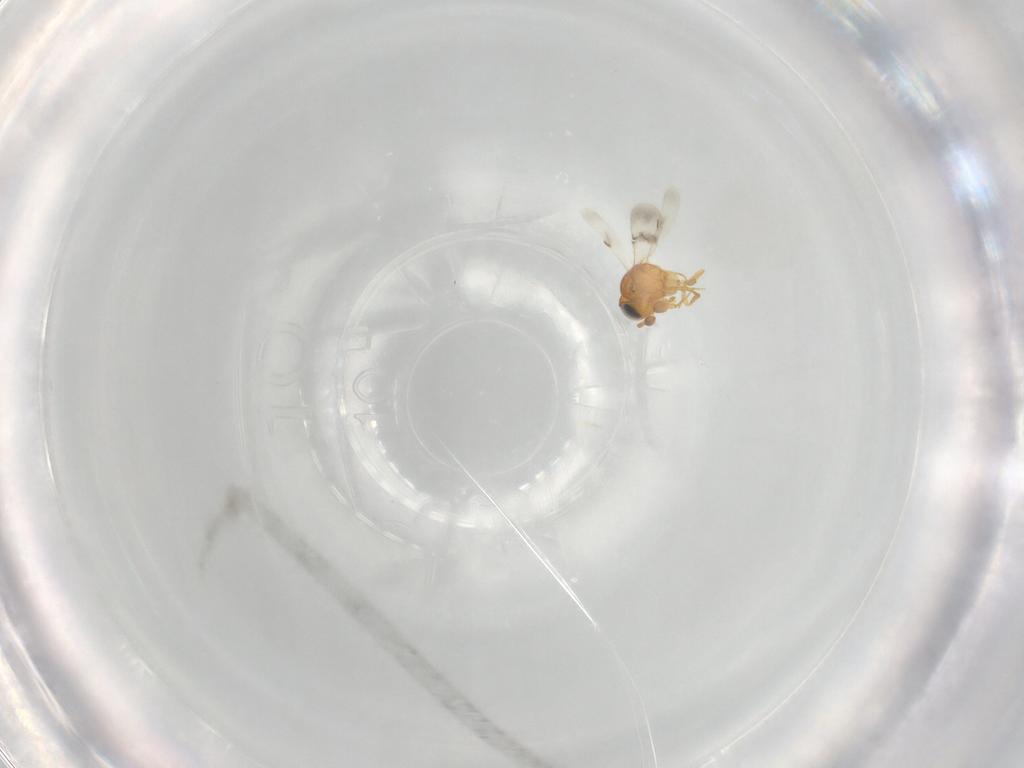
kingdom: Animalia
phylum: Arthropoda
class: Insecta
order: Hymenoptera
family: Scelionidae
